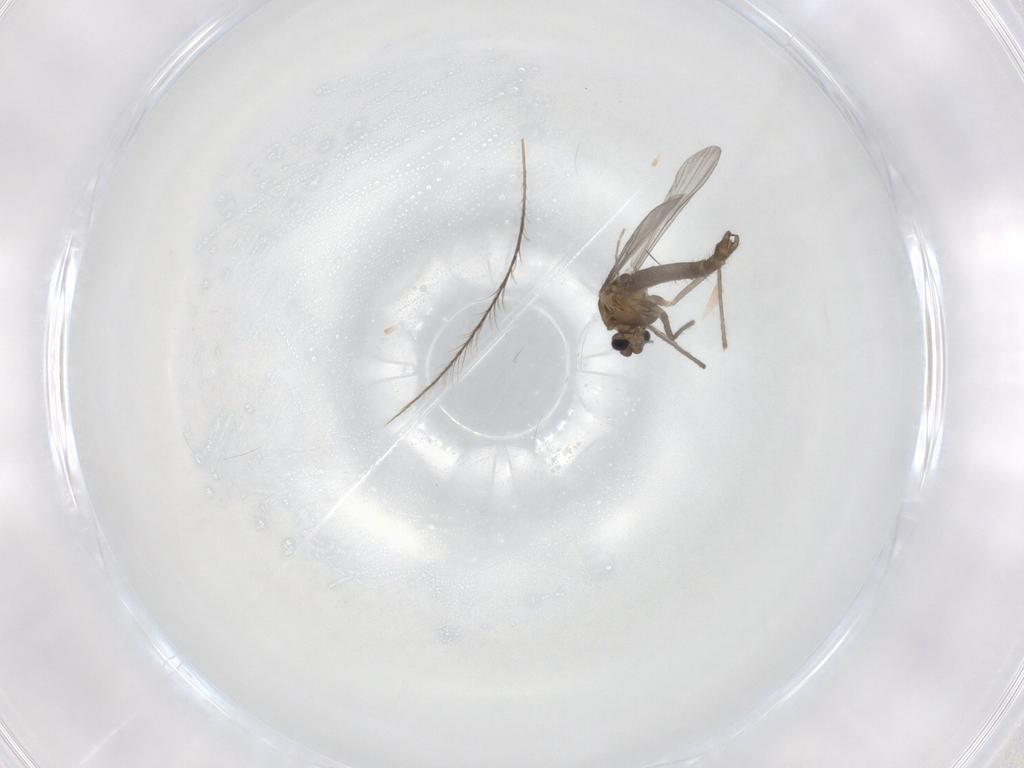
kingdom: Animalia
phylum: Arthropoda
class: Insecta
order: Diptera
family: Chironomidae
